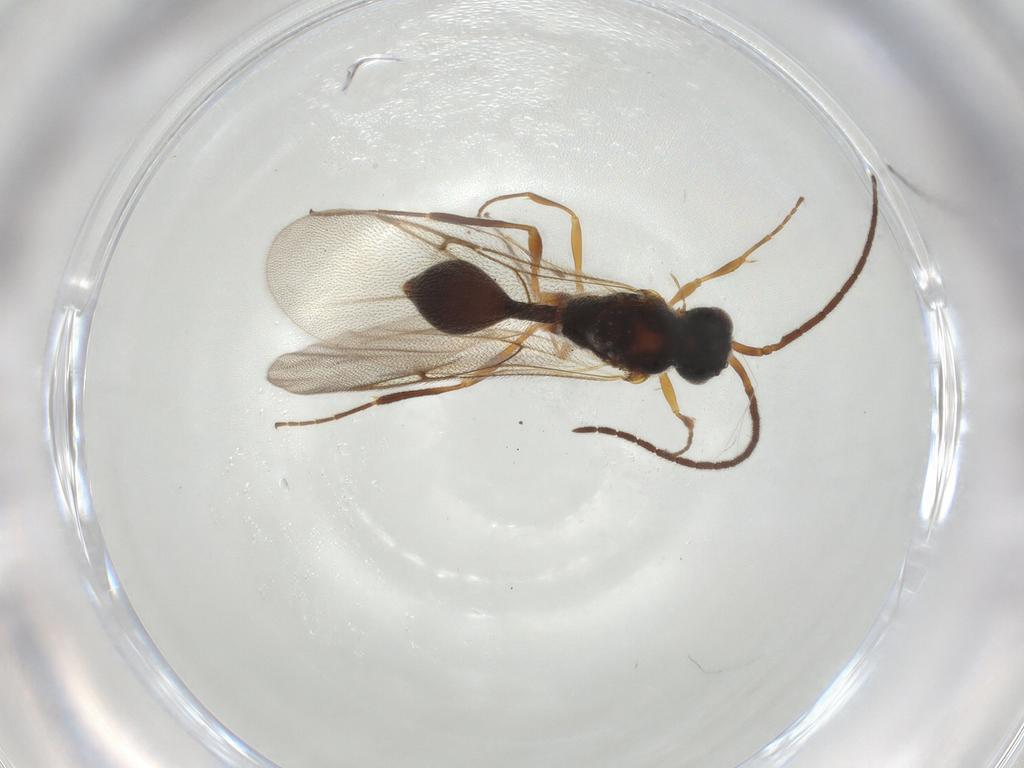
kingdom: Animalia
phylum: Arthropoda
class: Insecta
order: Hymenoptera
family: Diapriidae
